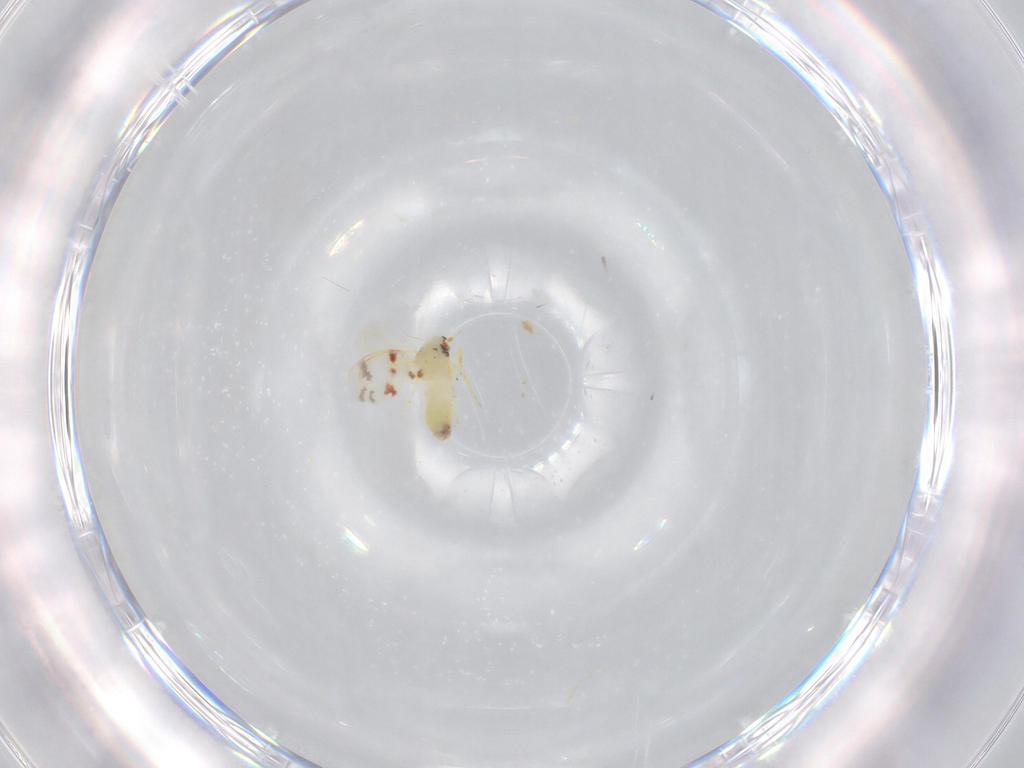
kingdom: Animalia
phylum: Arthropoda
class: Insecta
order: Hemiptera
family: Aleyrodidae
